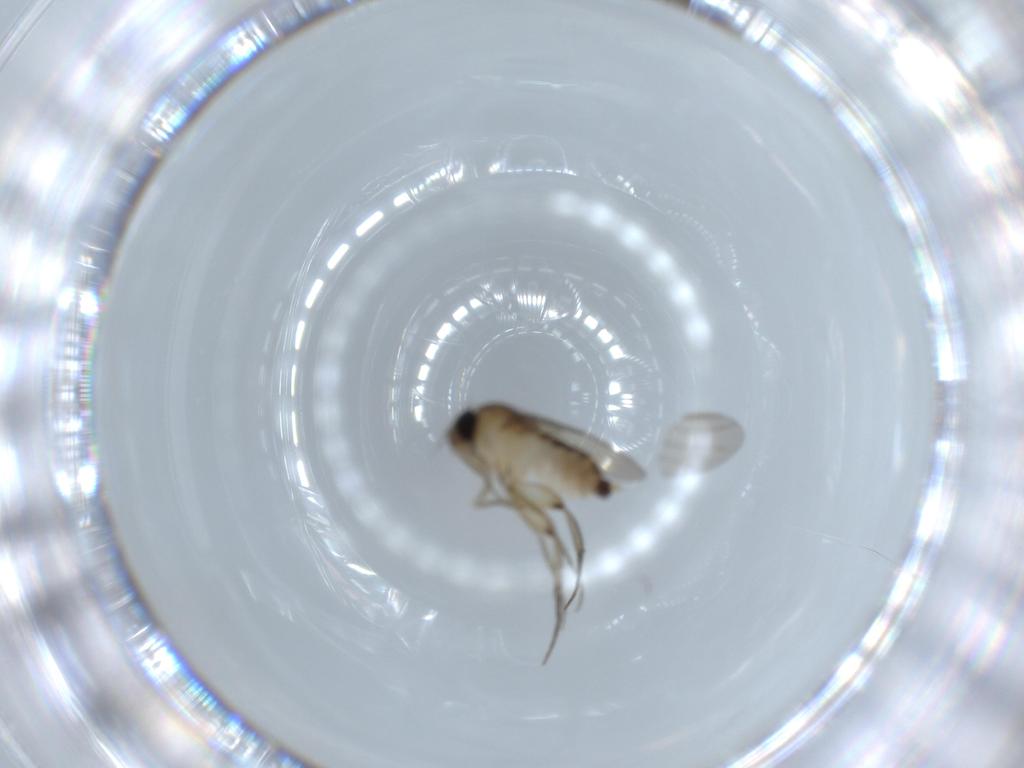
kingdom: Animalia
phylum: Arthropoda
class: Insecta
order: Diptera
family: Phoridae
